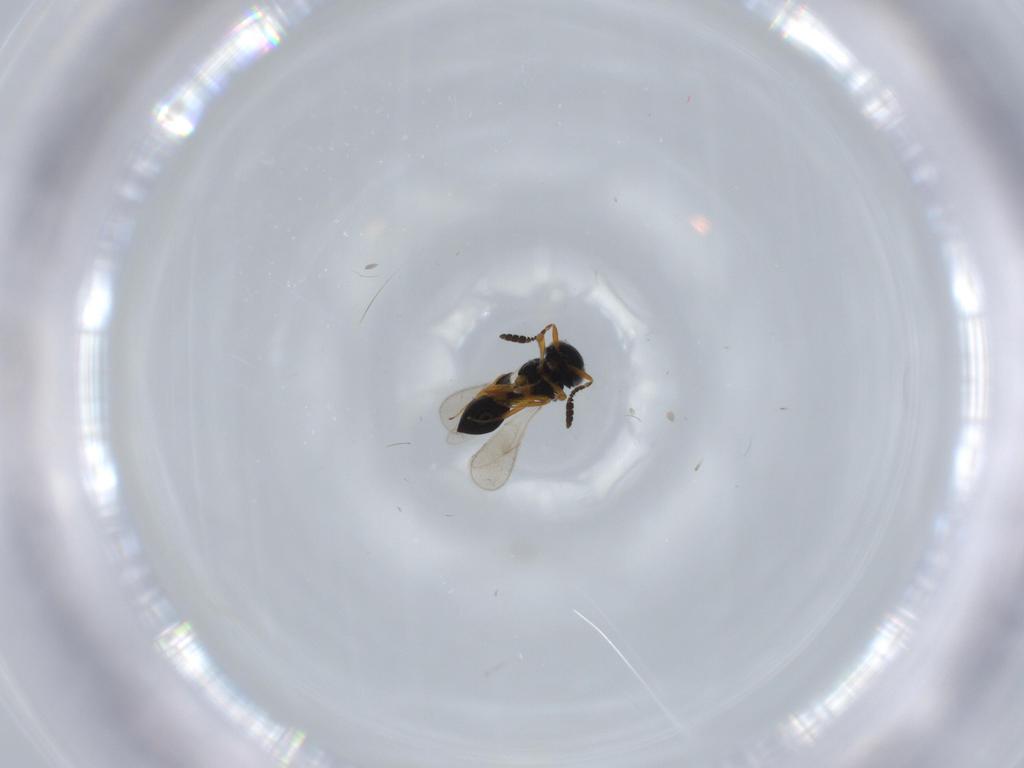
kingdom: Animalia
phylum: Arthropoda
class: Insecta
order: Hymenoptera
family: Scelionidae
